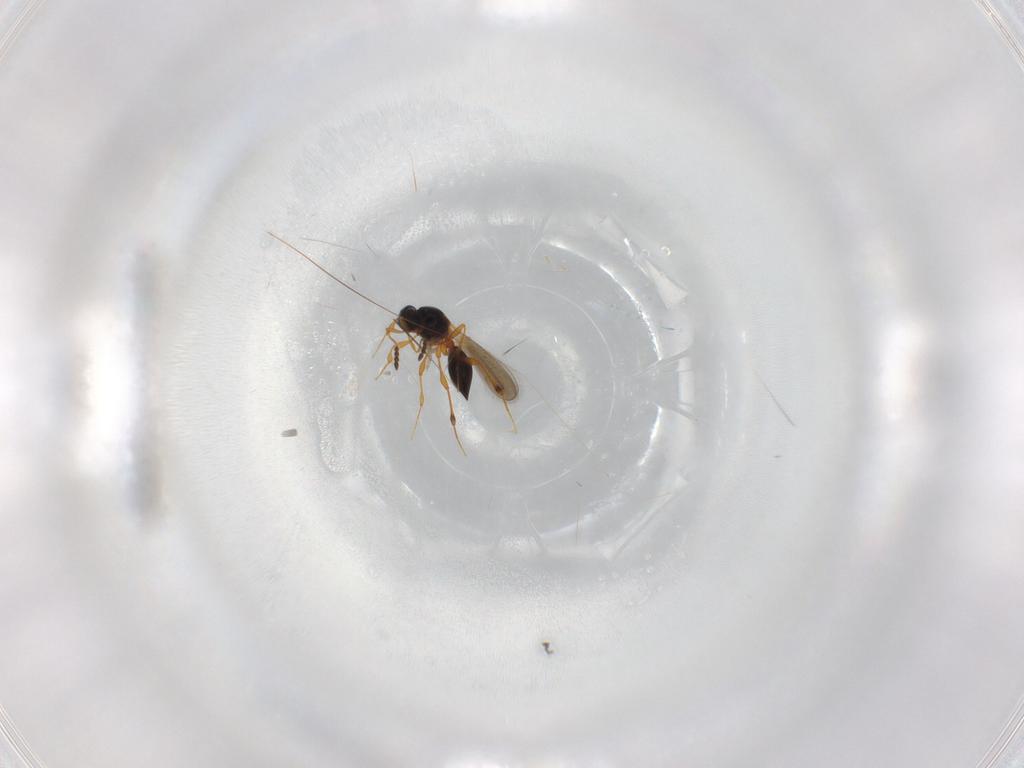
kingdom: Animalia
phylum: Arthropoda
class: Insecta
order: Hymenoptera
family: Platygastridae
